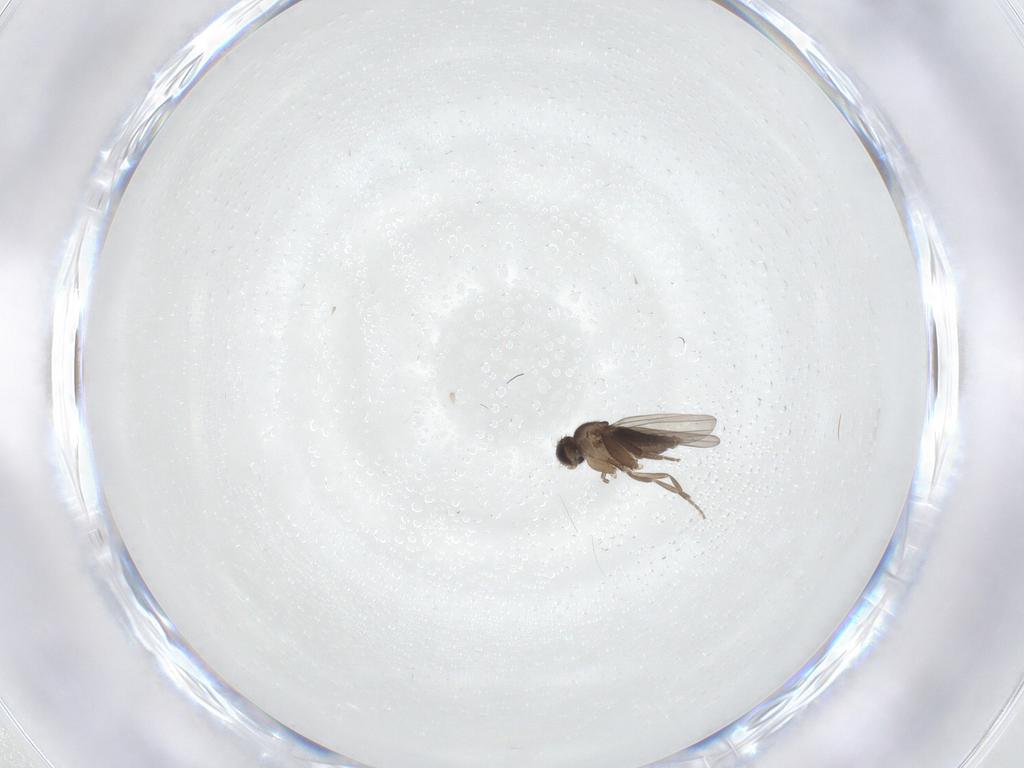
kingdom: Animalia
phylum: Arthropoda
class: Insecta
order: Diptera
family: Phoridae
